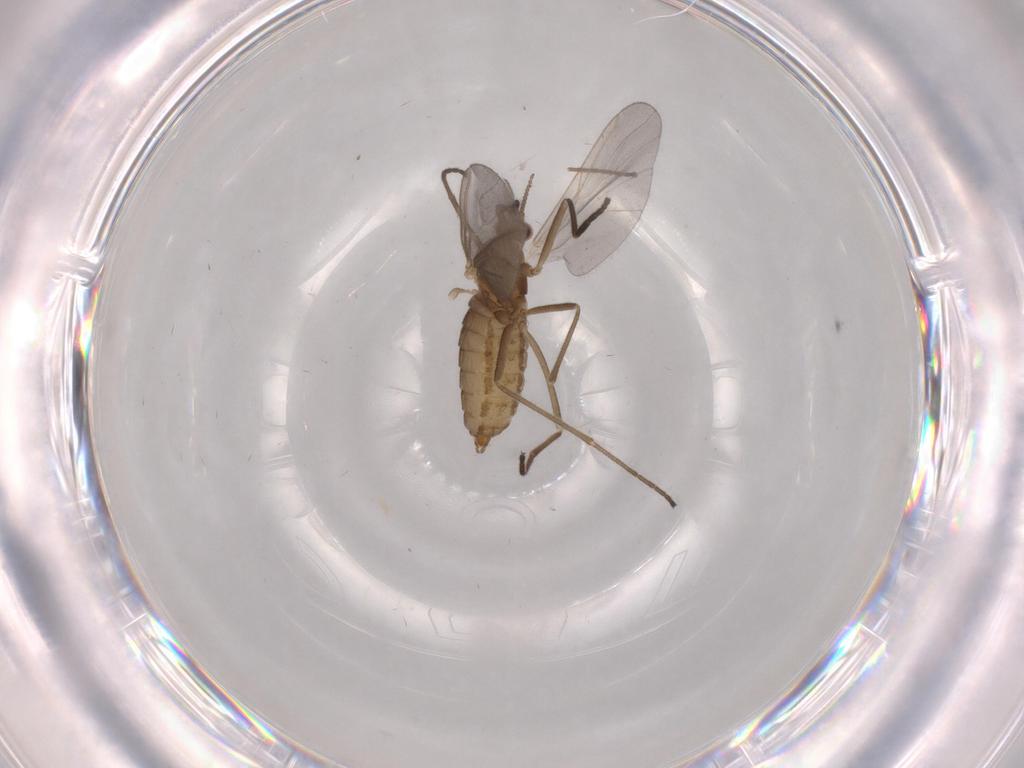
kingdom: Animalia
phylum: Arthropoda
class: Insecta
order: Diptera
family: Cecidomyiidae
